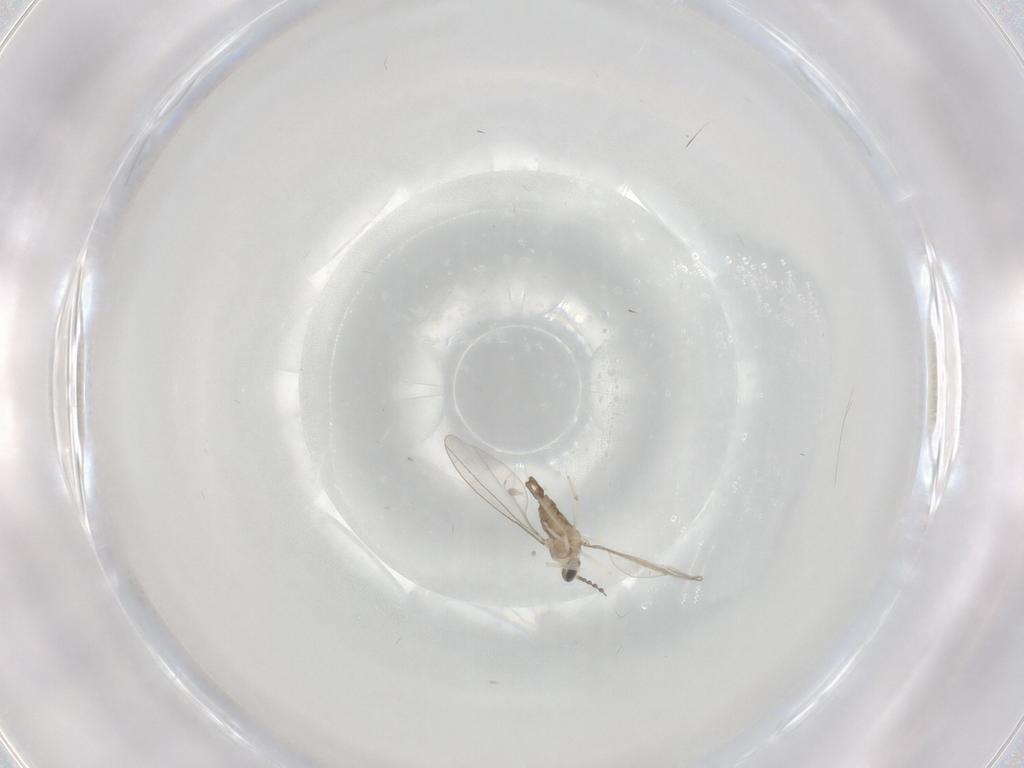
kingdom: Animalia
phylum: Arthropoda
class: Insecta
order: Diptera
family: Cecidomyiidae
